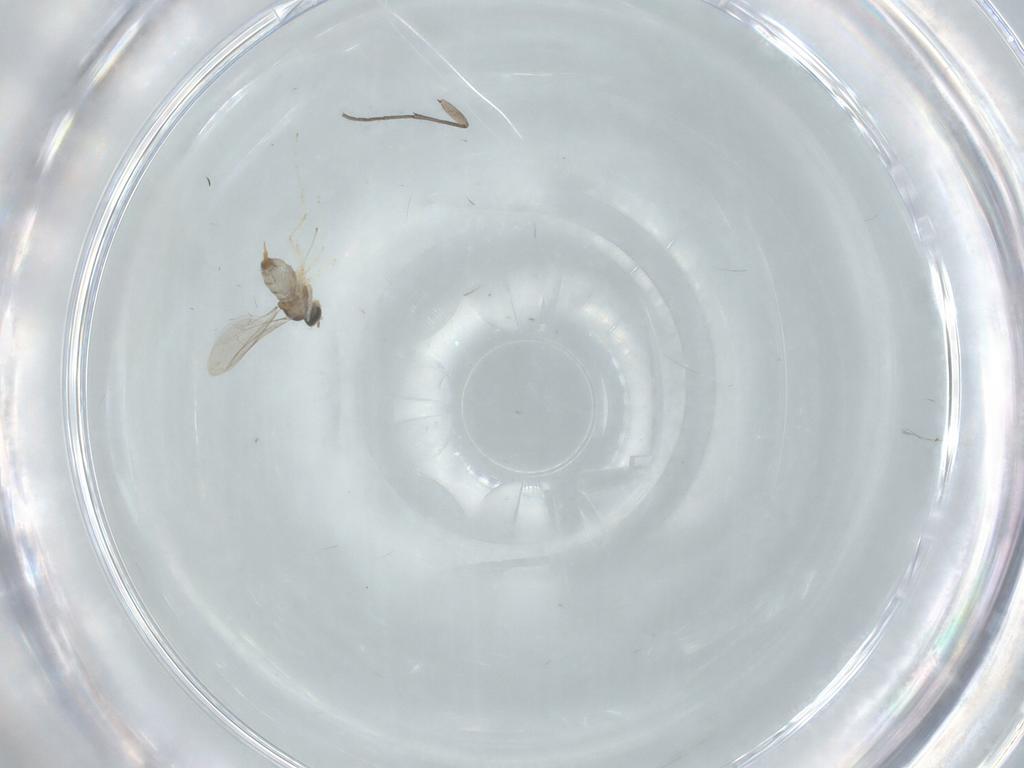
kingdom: Animalia
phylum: Arthropoda
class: Insecta
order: Diptera
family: Cecidomyiidae
